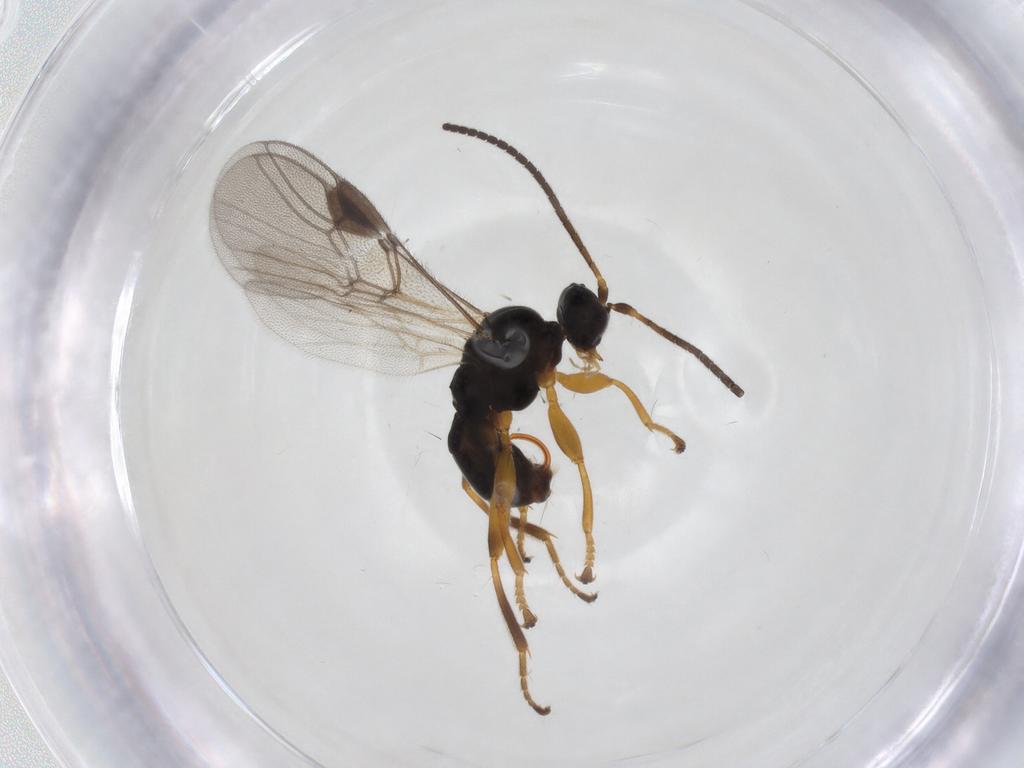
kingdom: Animalia
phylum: Arthropoda
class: Insecta
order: Hymenoptera
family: Braconidae
